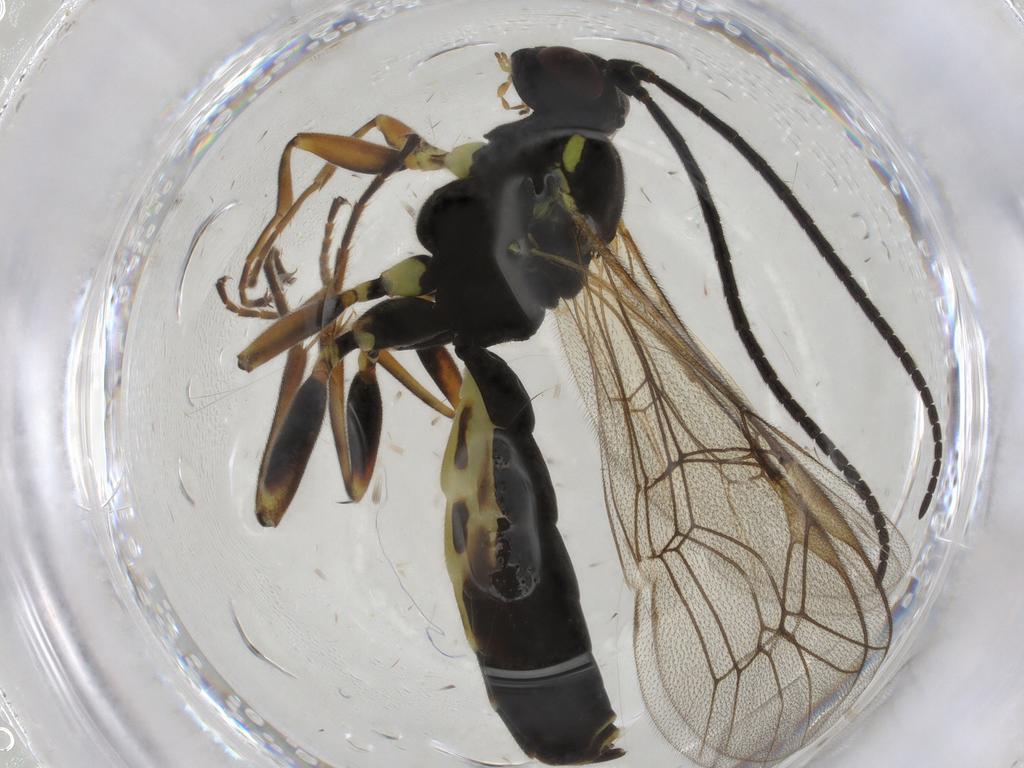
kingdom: Animalia
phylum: Arthropoda
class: Insecta
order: Hymenoptera
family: Ichneumonidae
